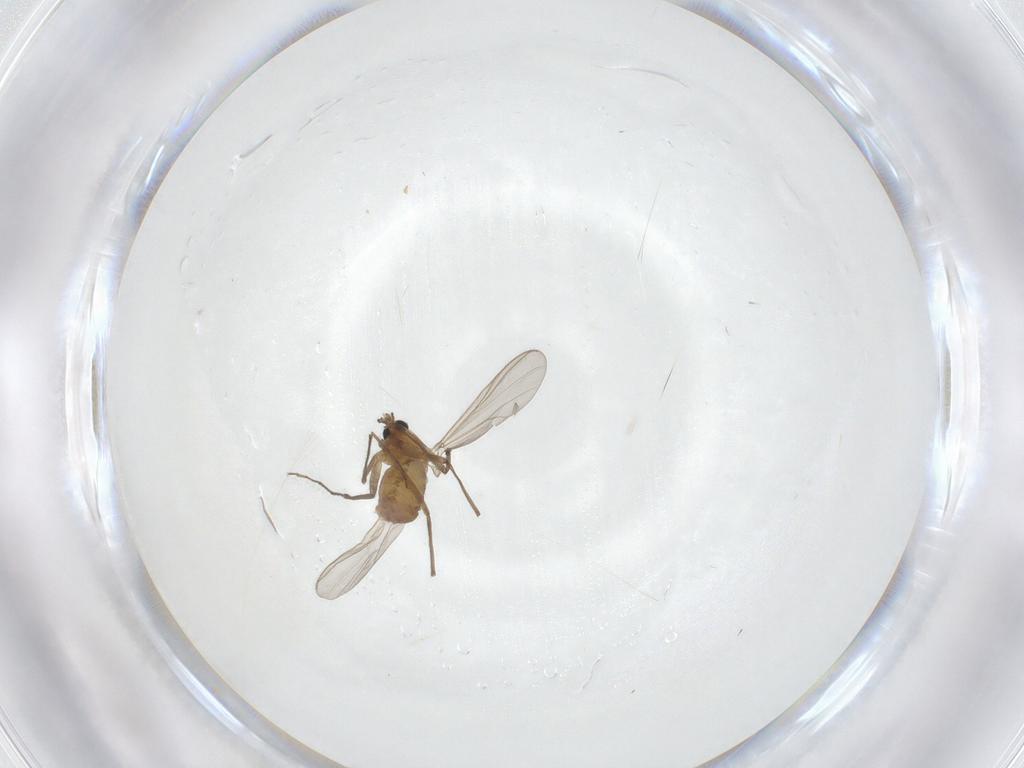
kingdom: Animalia
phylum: Arthropoda
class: Insecta
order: Diptera
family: Chironomidae
